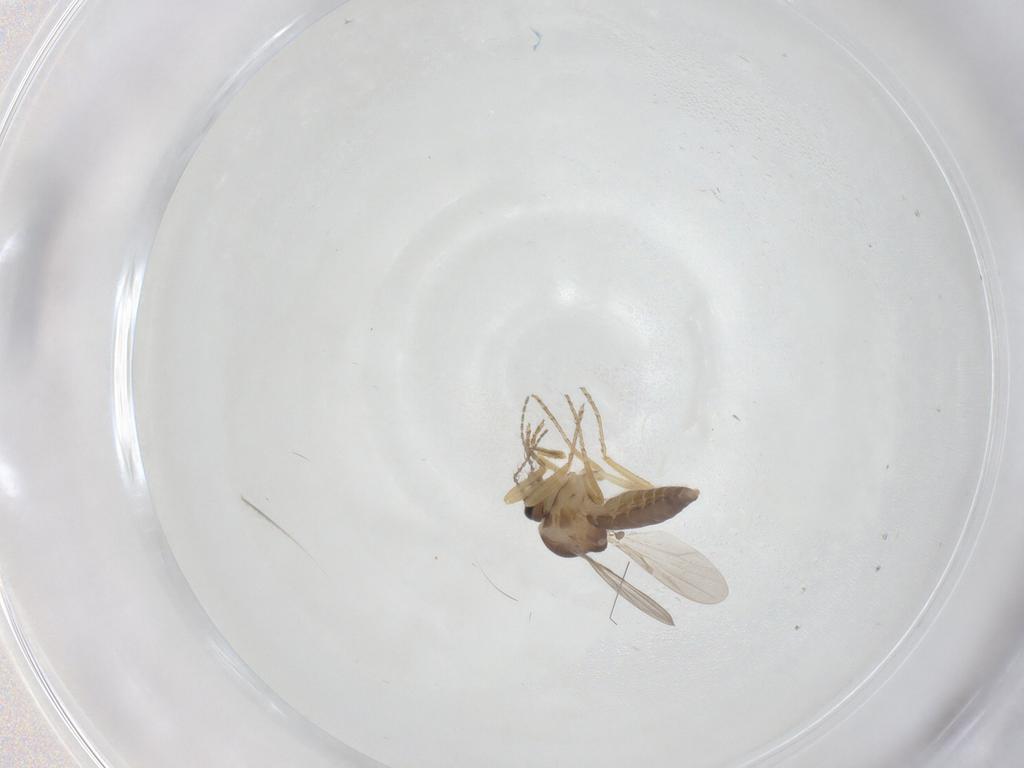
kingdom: Animalia
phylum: Arthropoda
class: Insecta
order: Diptera
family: Ceratopogonidae
